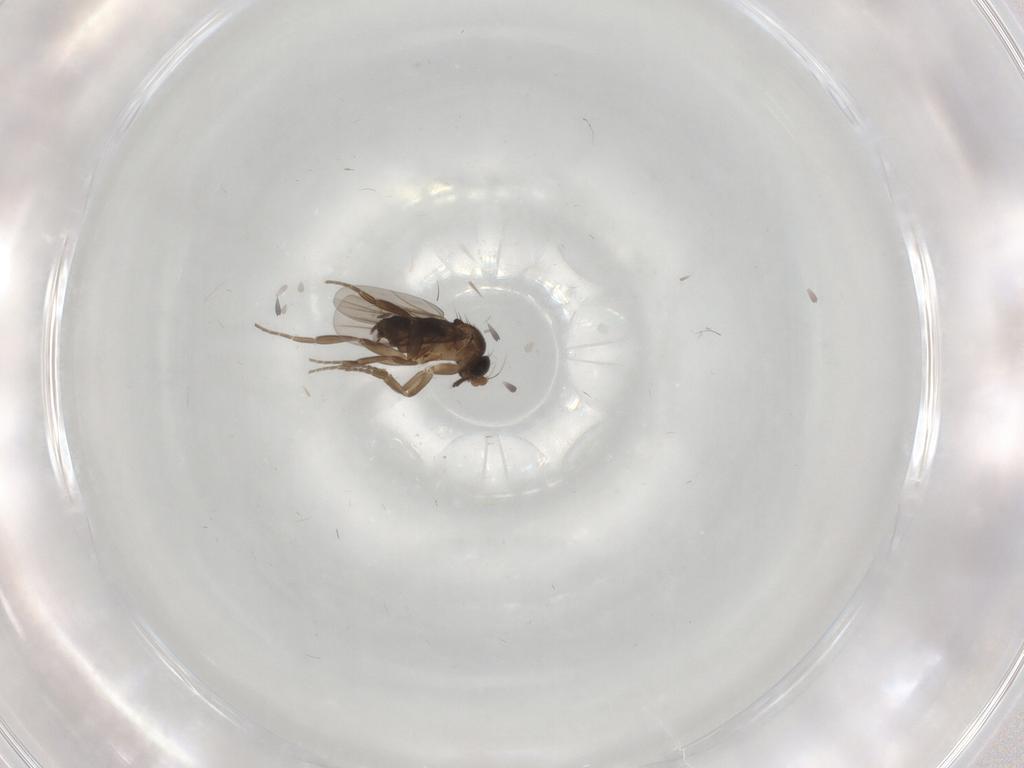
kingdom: Animalia
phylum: Arthropoda
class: Insecta
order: Diptera
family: Phoridae
